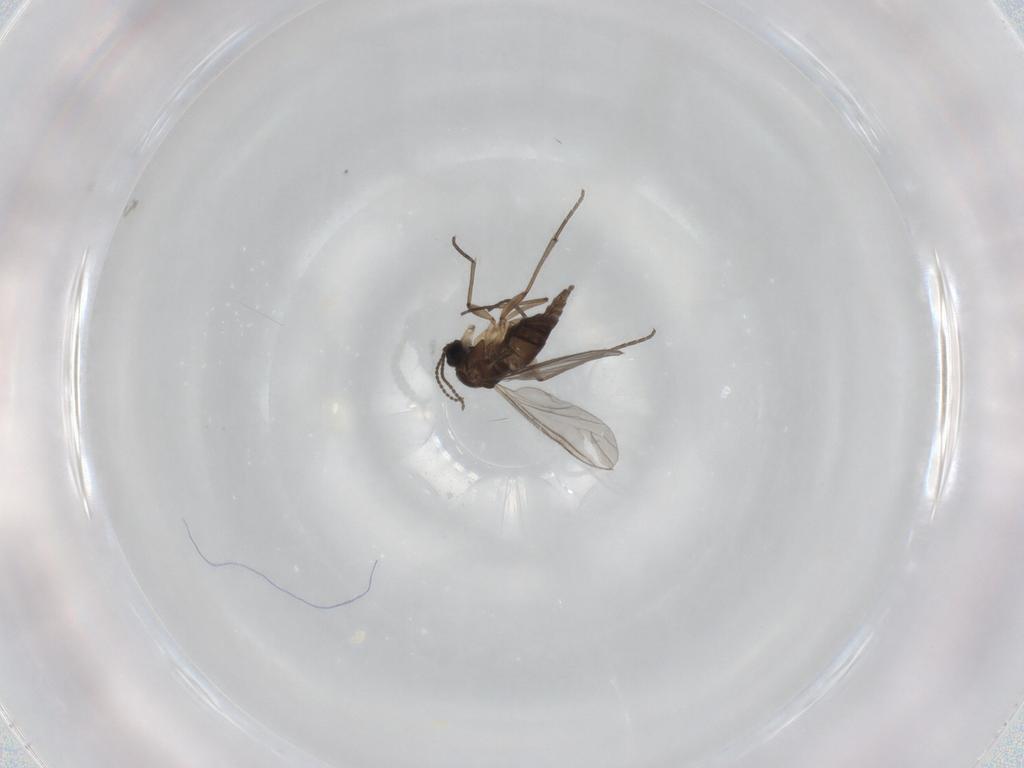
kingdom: Animalia
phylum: Arthropoda
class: Insecta
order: Diptera
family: Sciaridae
